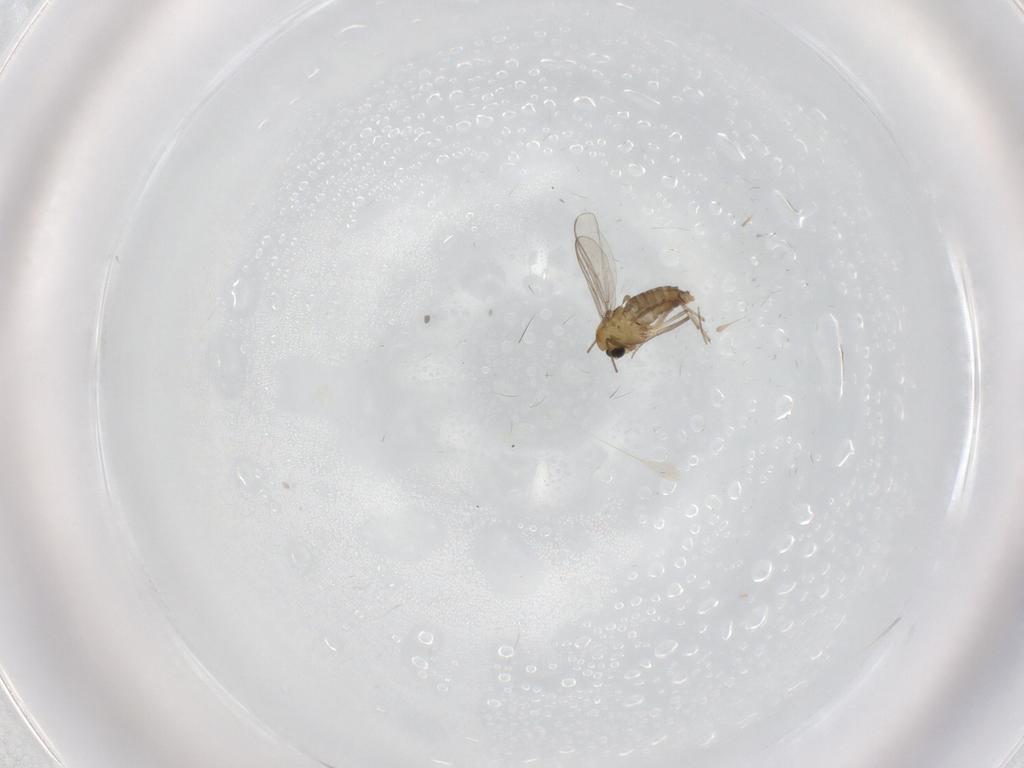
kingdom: Animalia
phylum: Arthropoda
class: Insecta
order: Diptera
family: Chironomidae
